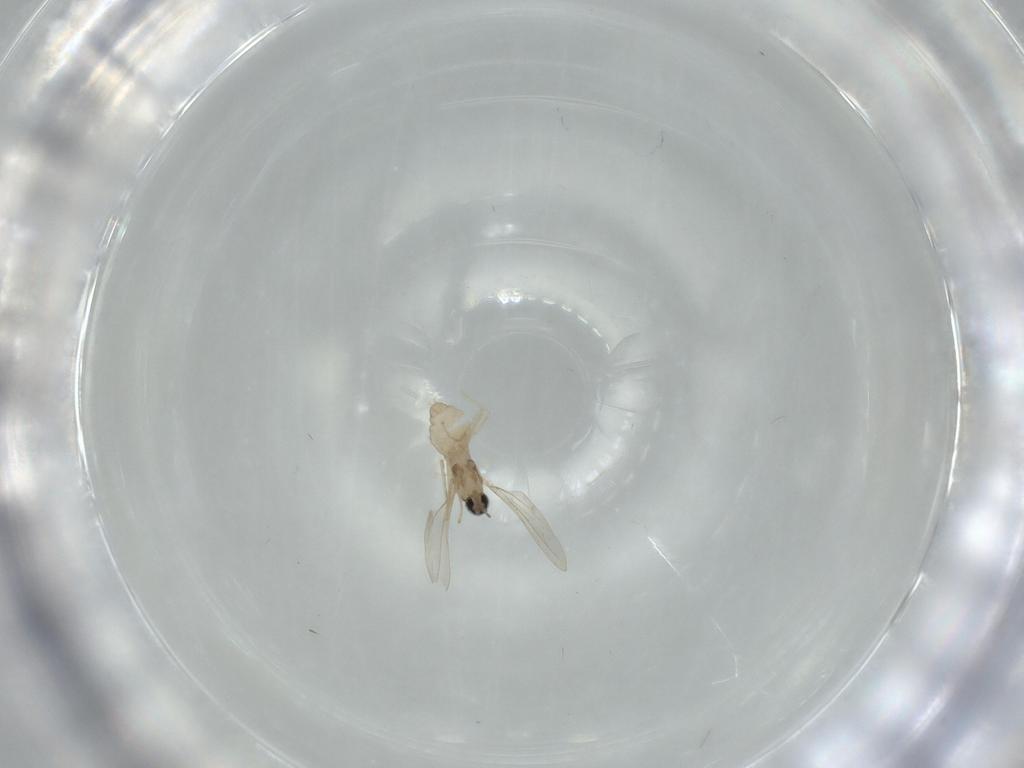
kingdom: Animalia
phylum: Arthropoda
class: Insecta
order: Diptera
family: Cecidomyiidae
